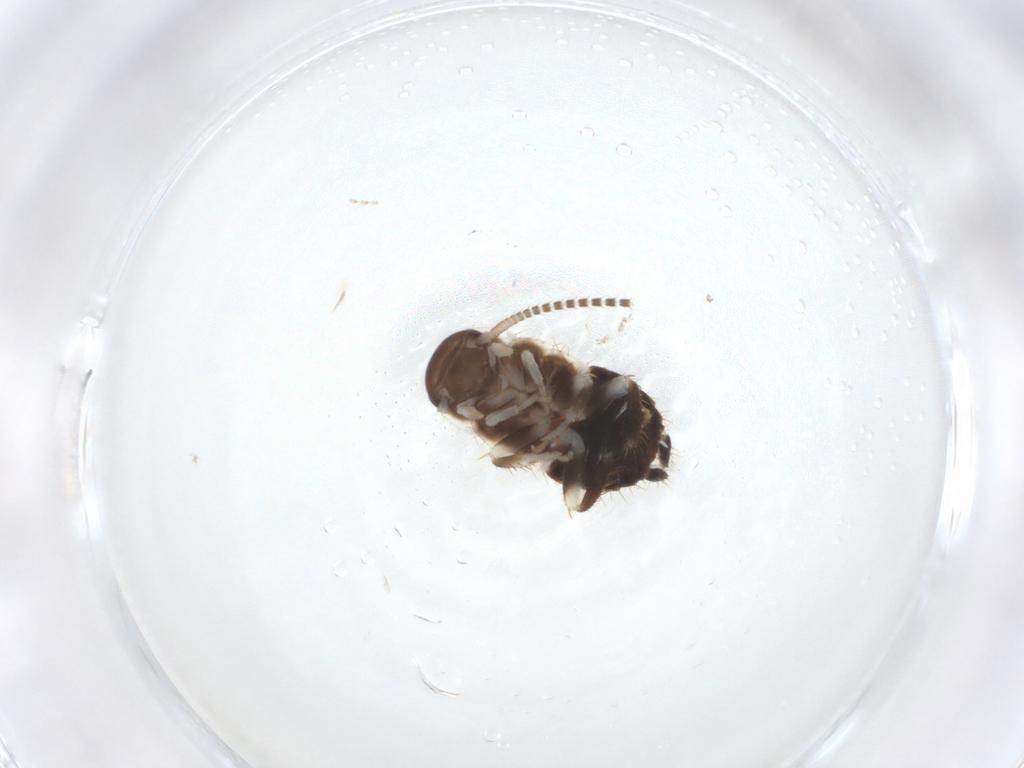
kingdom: Animalia
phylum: Arthropoda
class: Insecta
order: Blattodea
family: Ectobiidae
